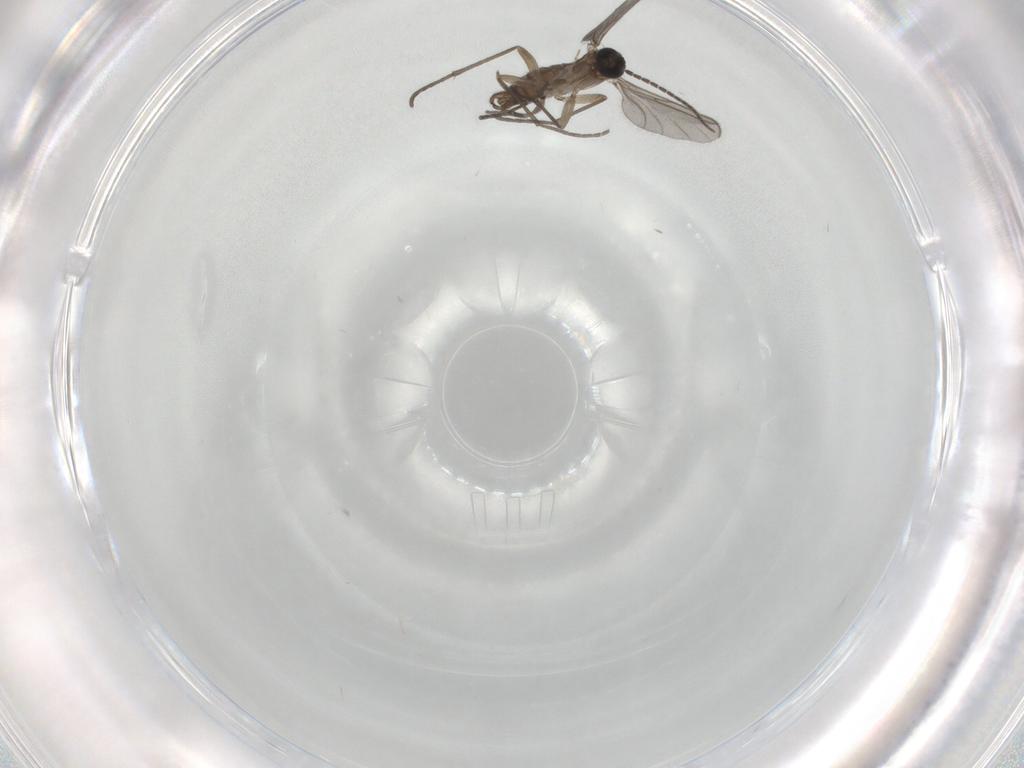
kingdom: Animalia
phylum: Arthropoda
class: Insecta
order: Diptera
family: Sciaridae
